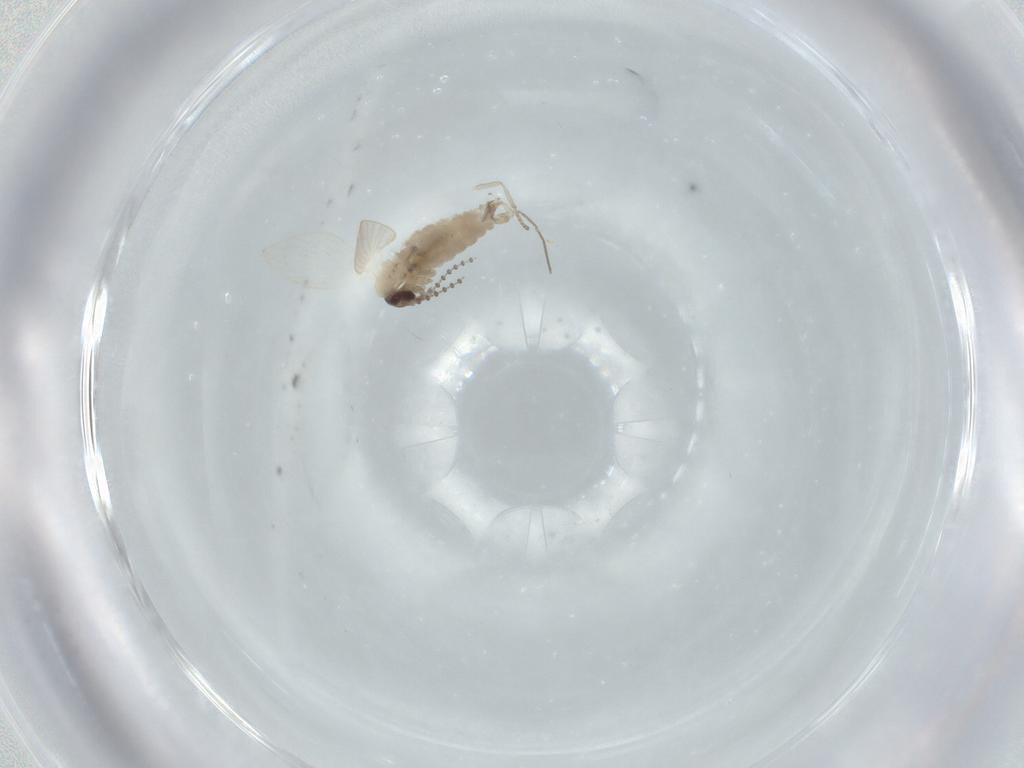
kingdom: Animalia
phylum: Arthropoda
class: Insecta
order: Diptera
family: Psychodidae
